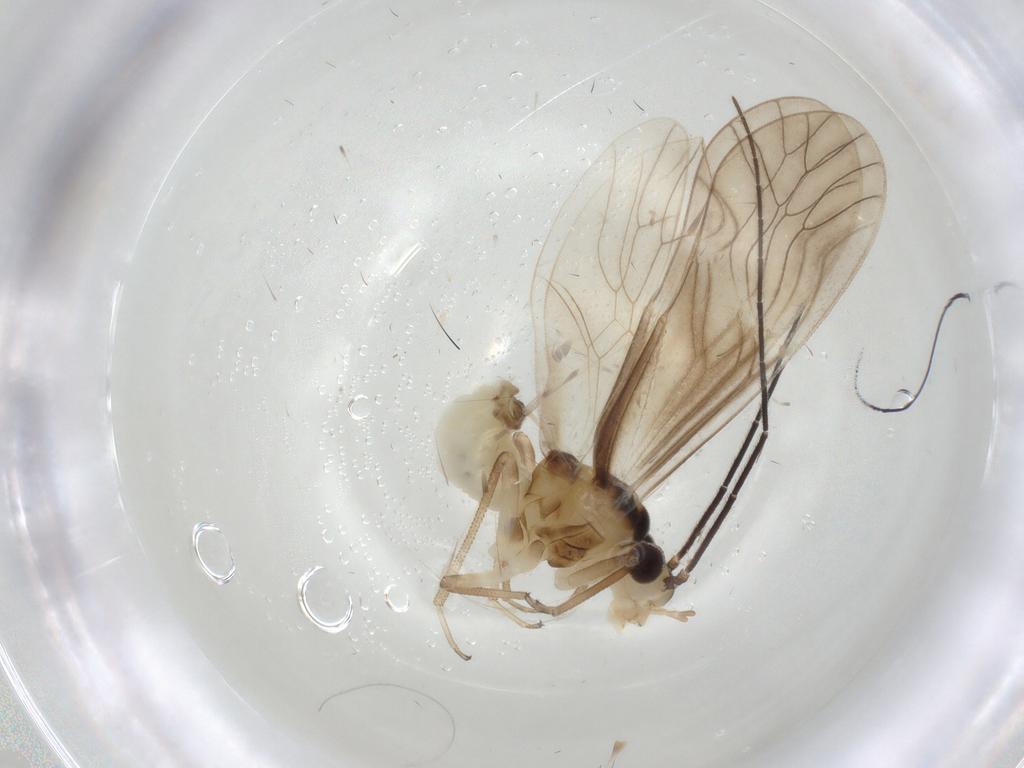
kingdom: Animalia
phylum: Arthropoda
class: Insecta
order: Psocodea
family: Caeciliusidae
